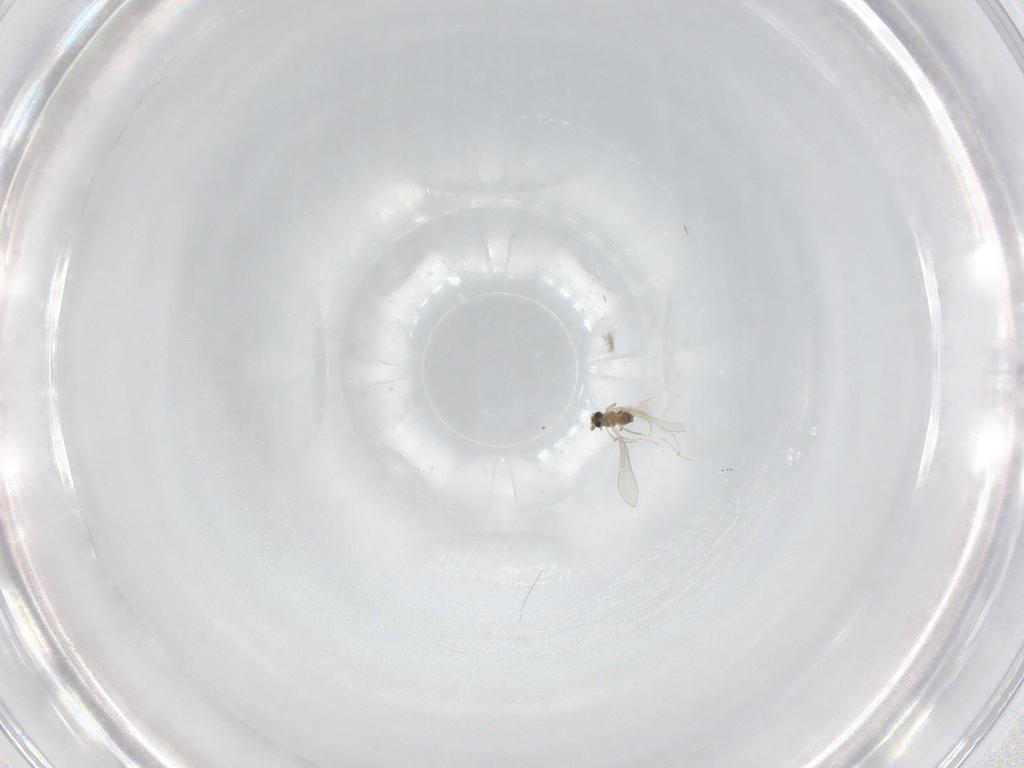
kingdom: Animalia
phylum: Arthropoda
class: Insecta
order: Diptera
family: Cecidomyiidae
